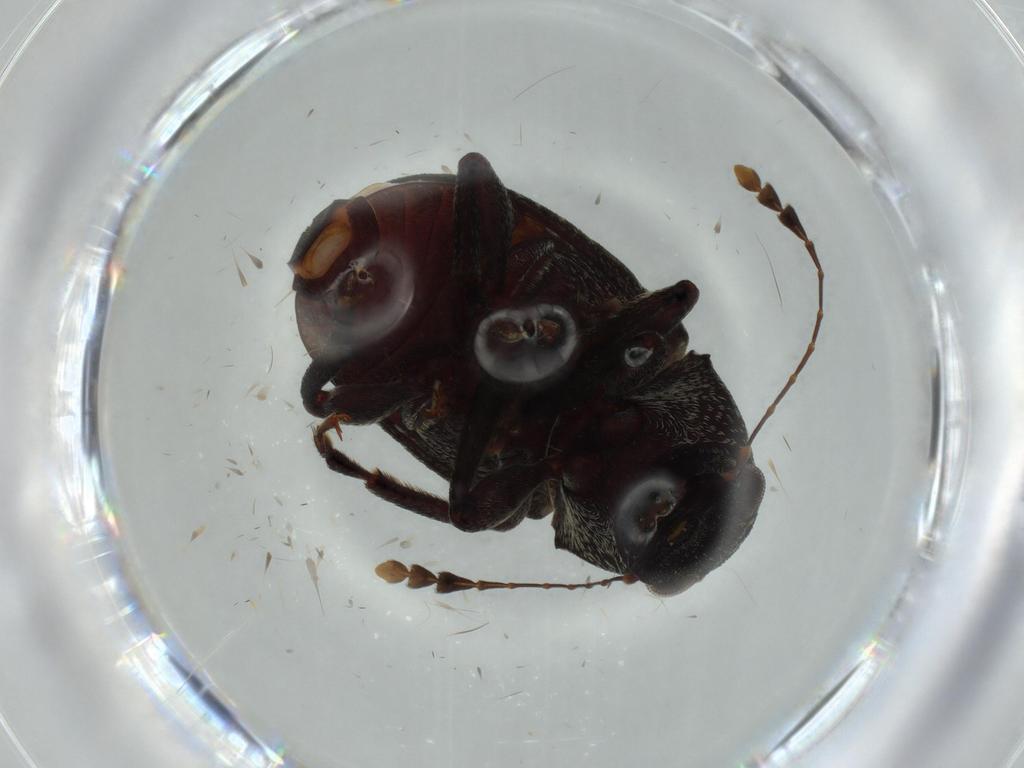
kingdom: Animalia
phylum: Arthropoda
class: Insecta
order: Coleoptera
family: Anthribidae
